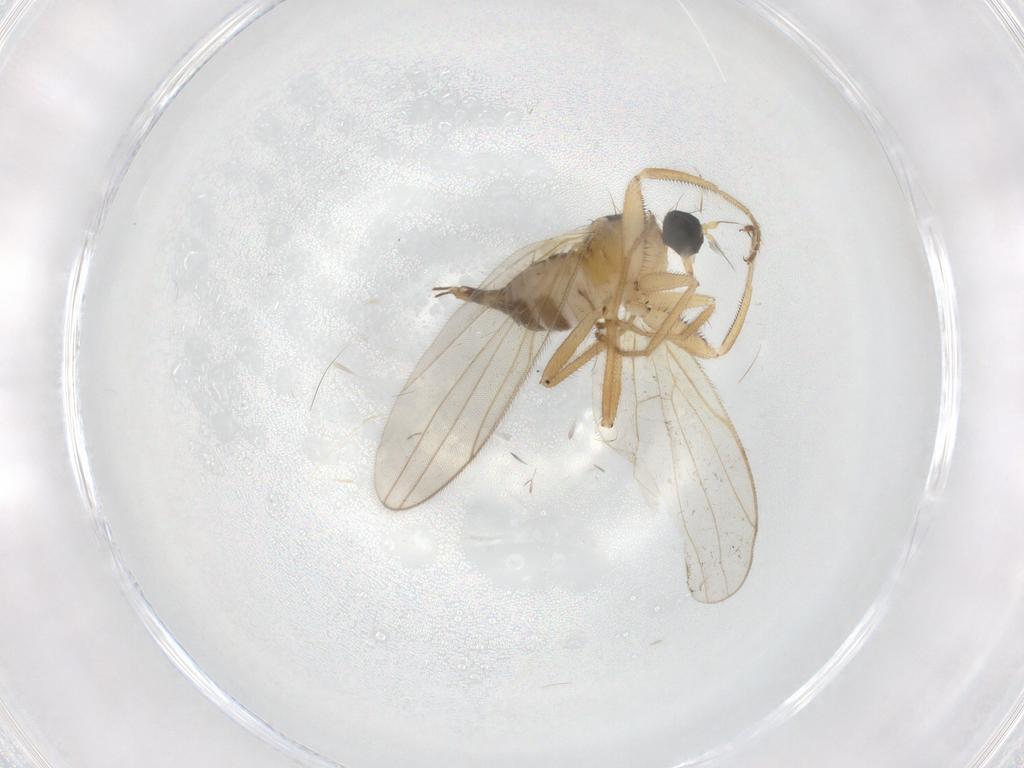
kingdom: Animalia
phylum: Arthropoda
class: Insecta
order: Diptera
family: Hybotidae
